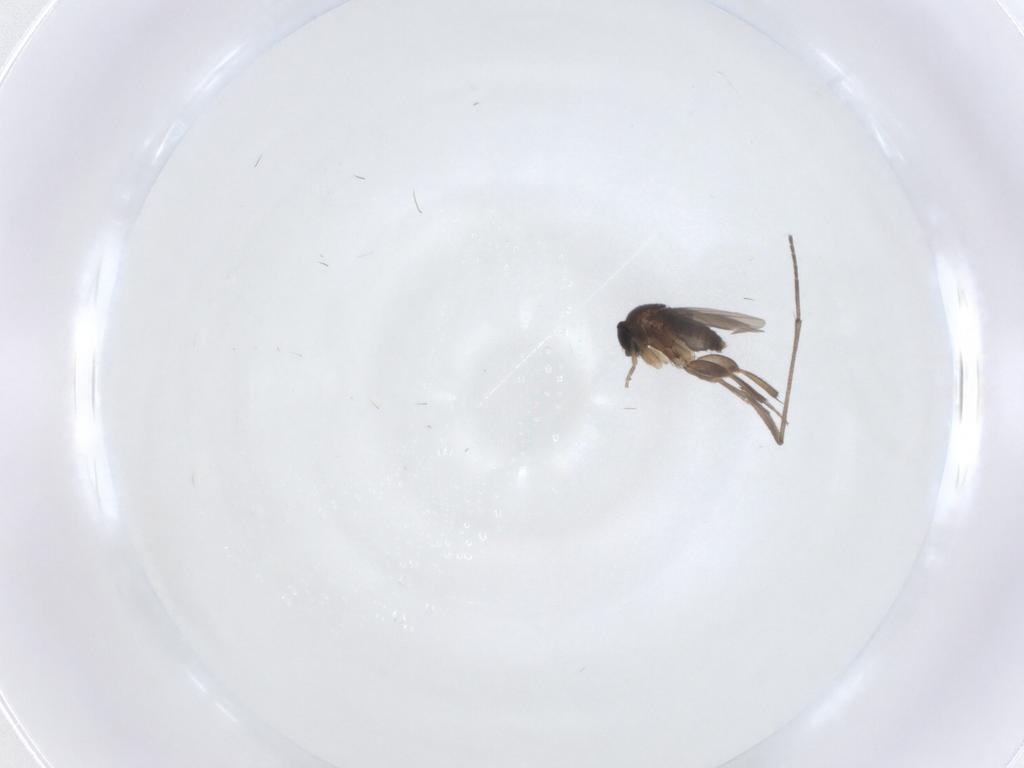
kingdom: Animalia
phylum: Arthropoda
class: Insecta
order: Diptera
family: Phoridae
